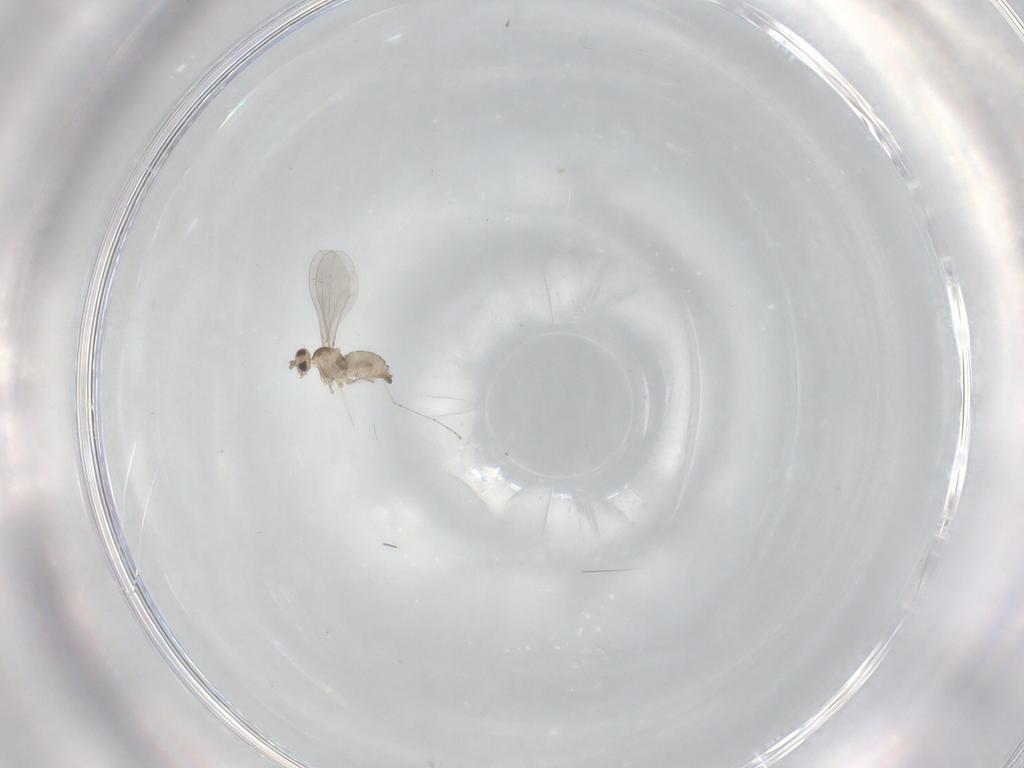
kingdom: Animalia
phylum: Arthropoda
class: Insecta
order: Diptera
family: Cecidomyiidae
